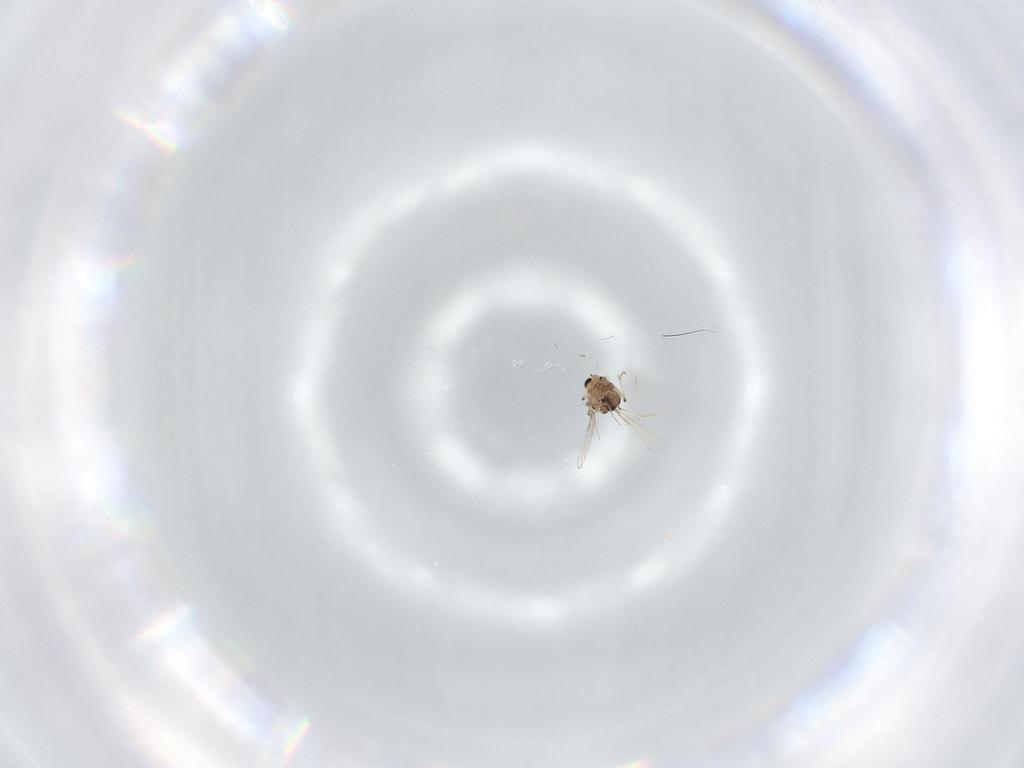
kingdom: Animalia
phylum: Arthropoda
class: Insecta
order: Diptera
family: Chironomidae
